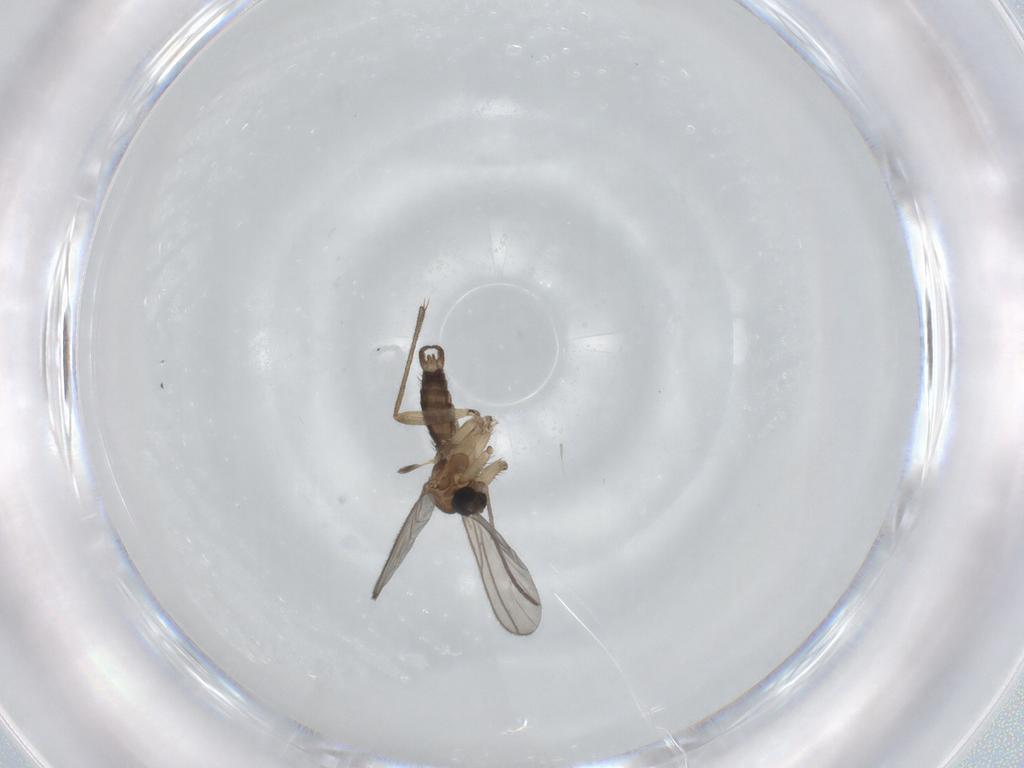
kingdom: Animalia
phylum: Arthropoda
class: Insecta
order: Diptera
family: Sciaridae
